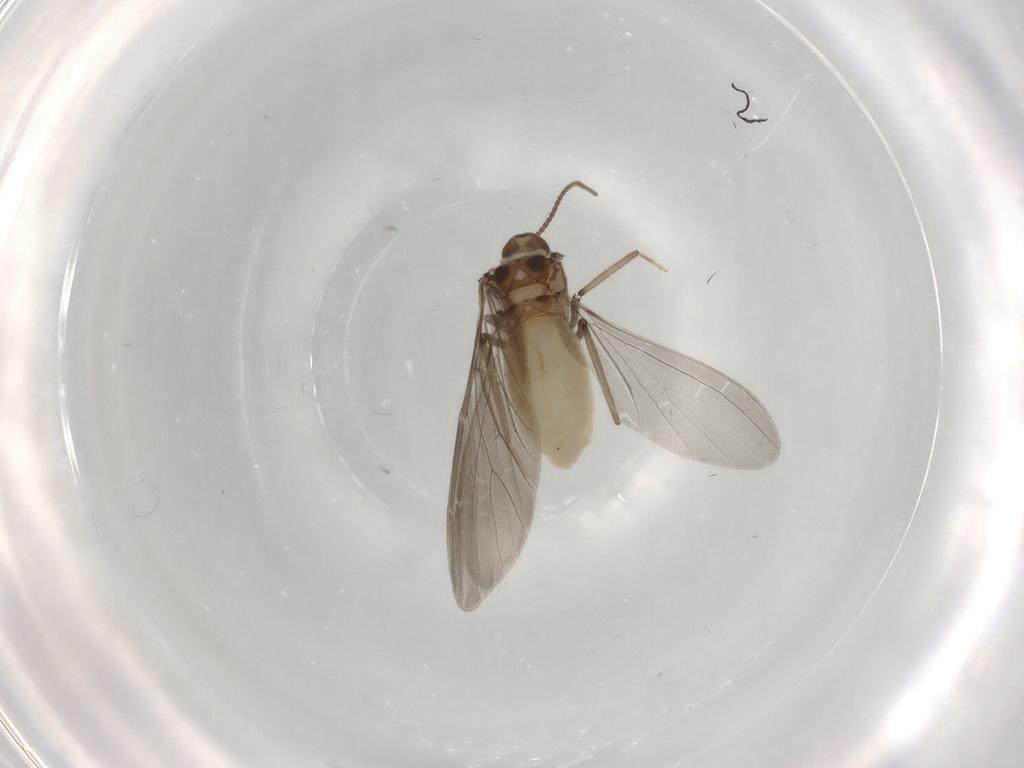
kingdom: Animalia
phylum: Arthropoda
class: Insecta
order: Neuroptera
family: Coniopterygidae
